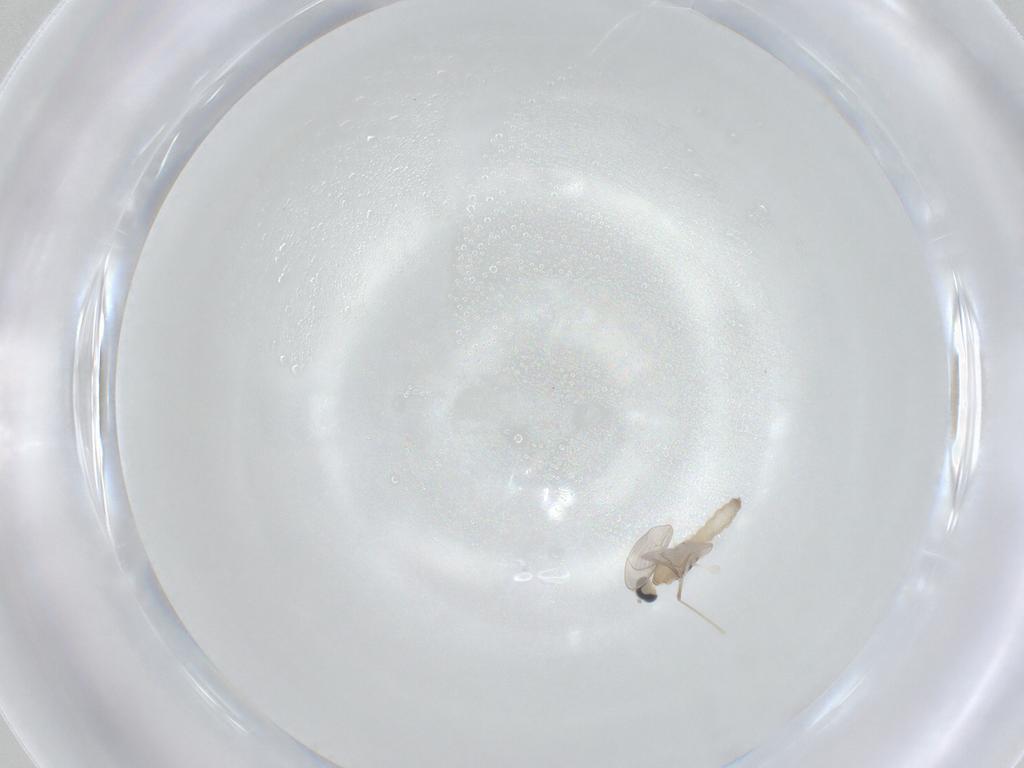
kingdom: Animalia
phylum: Arthropoda
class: Insecta
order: Diptera
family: Cecidomyiidae
